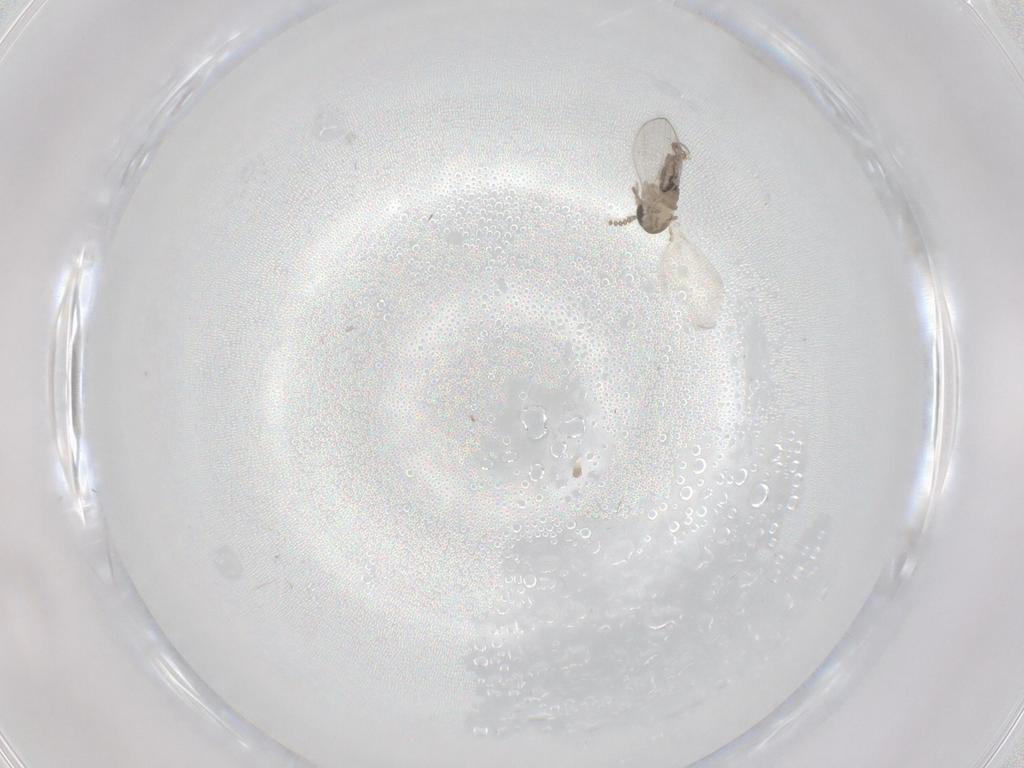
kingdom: Animalia
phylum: Arthropoda
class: Insecta
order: Diptera
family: Psychodidae
